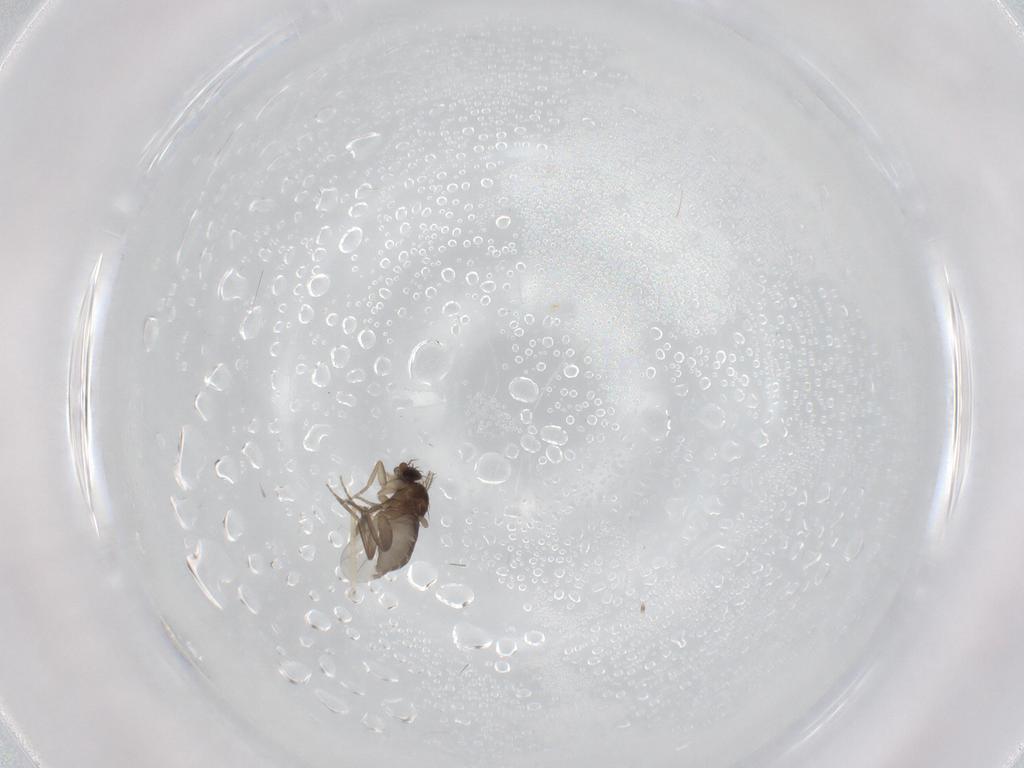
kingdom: Animalia
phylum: Arthropoda
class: Insecta
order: Diptera
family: Phoridae
